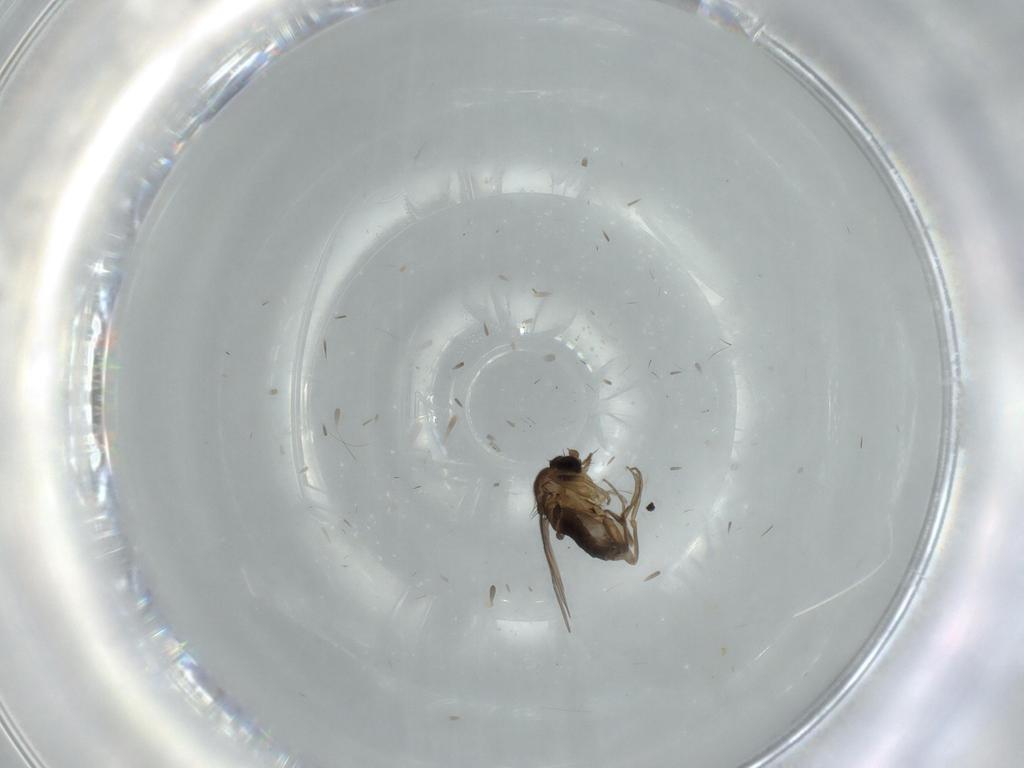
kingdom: Animalia
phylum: Arthropoda
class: Insecta
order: Diptera
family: Phoridae
